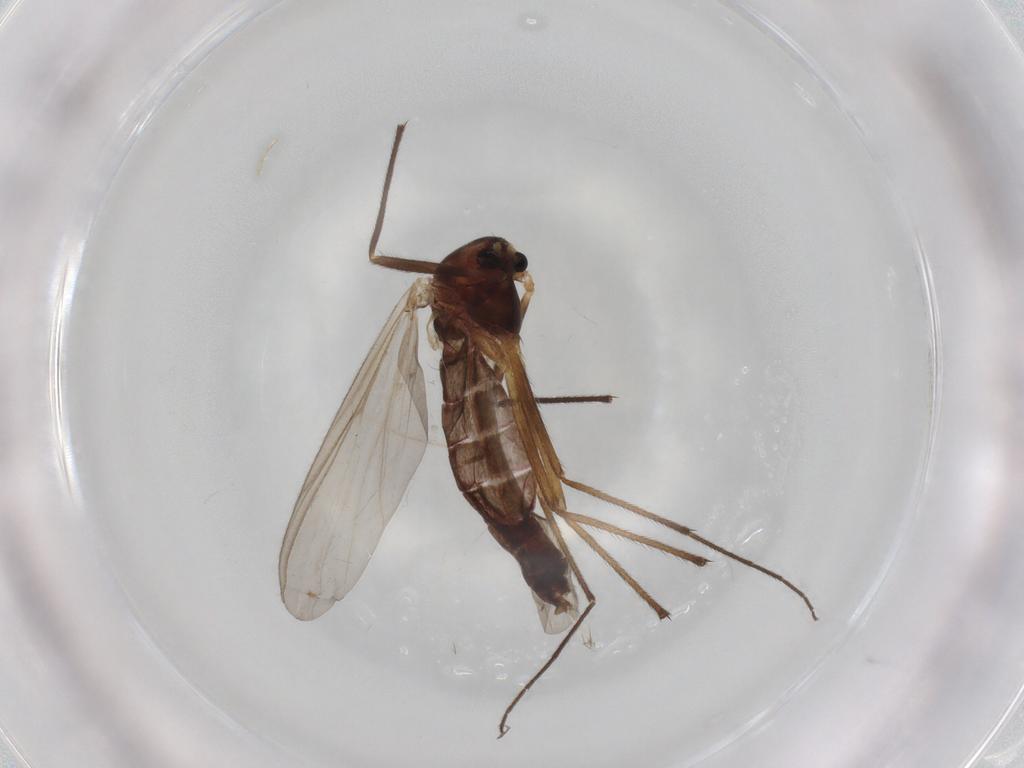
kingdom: Animalia
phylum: Arthropoda
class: Insecta
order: Diptera
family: Chironomidae
